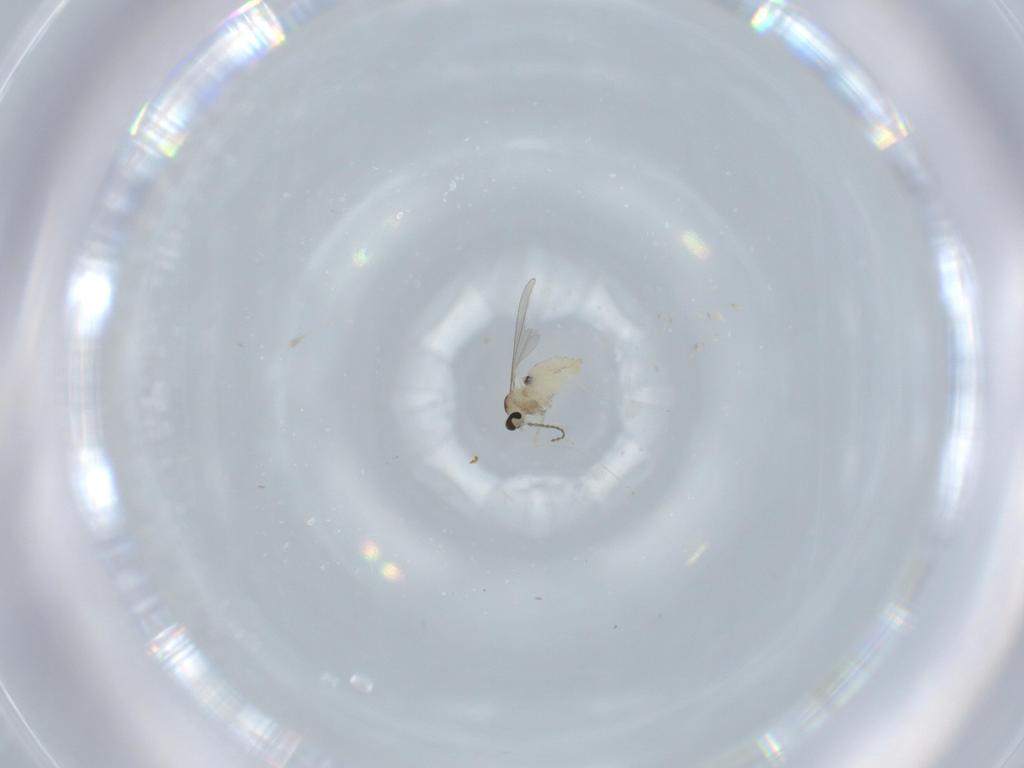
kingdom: Animalia
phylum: Arthropoda
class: Insecta
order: Diptera
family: Cecidomyiidae
